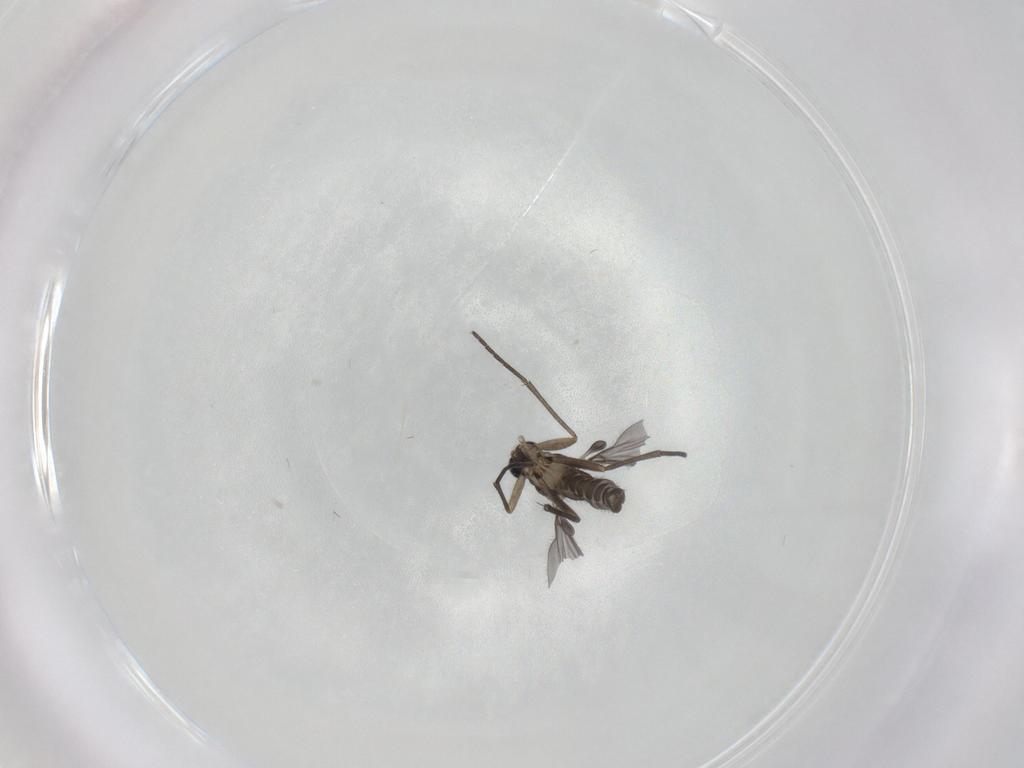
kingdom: Animalia
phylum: Arthropoda
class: Insecta
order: Diptera
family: Sciaridae
